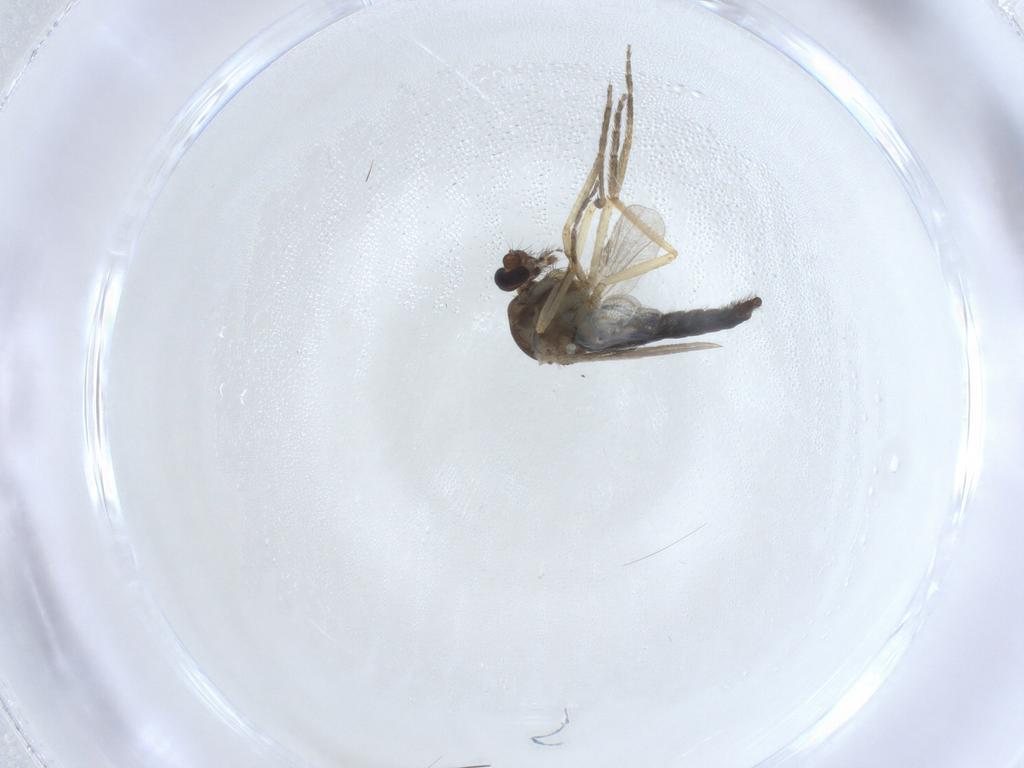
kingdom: Animalia
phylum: Arthropoda
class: Insecta
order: Diptera
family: Ceratopogonidae
